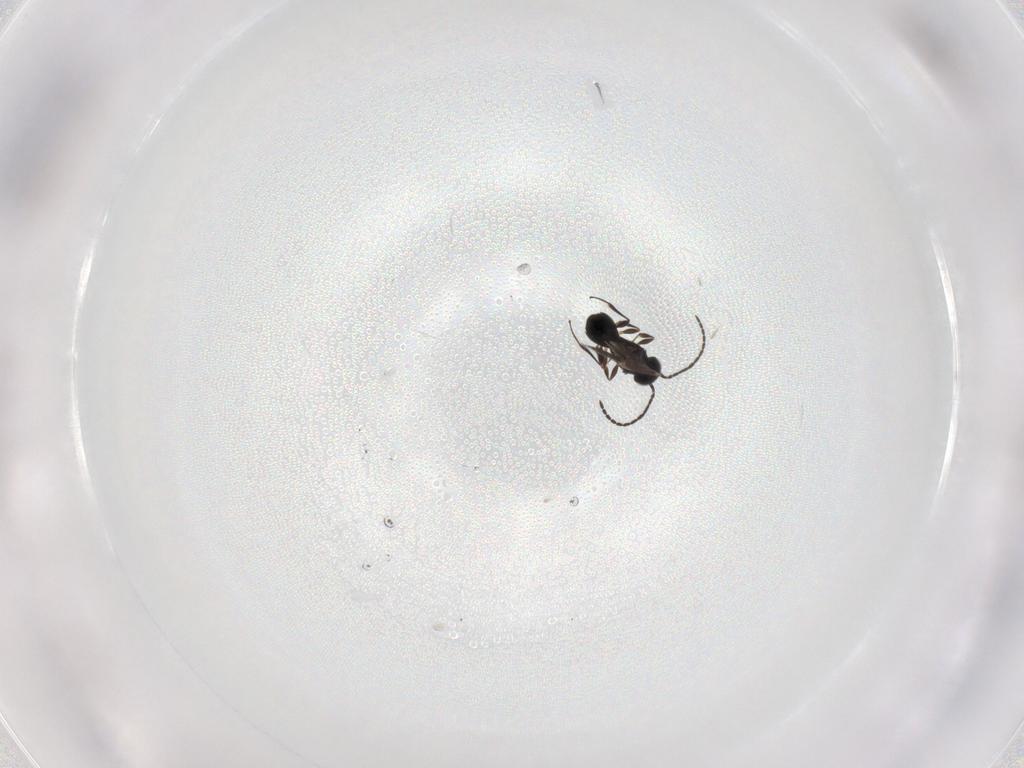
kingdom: Animalia
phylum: Arthropoda
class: Insecta
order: Hymenoptera
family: Scelionidae
